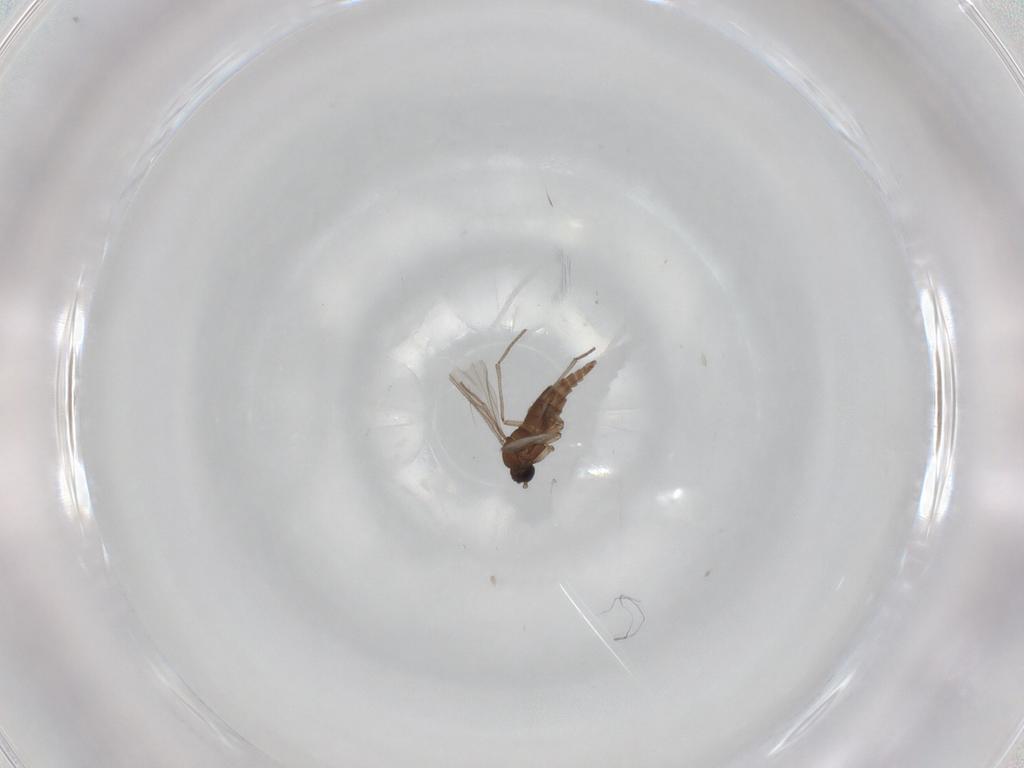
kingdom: Animalia
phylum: Arthropoda
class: Insecta
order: Diptera
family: Sciaridae
